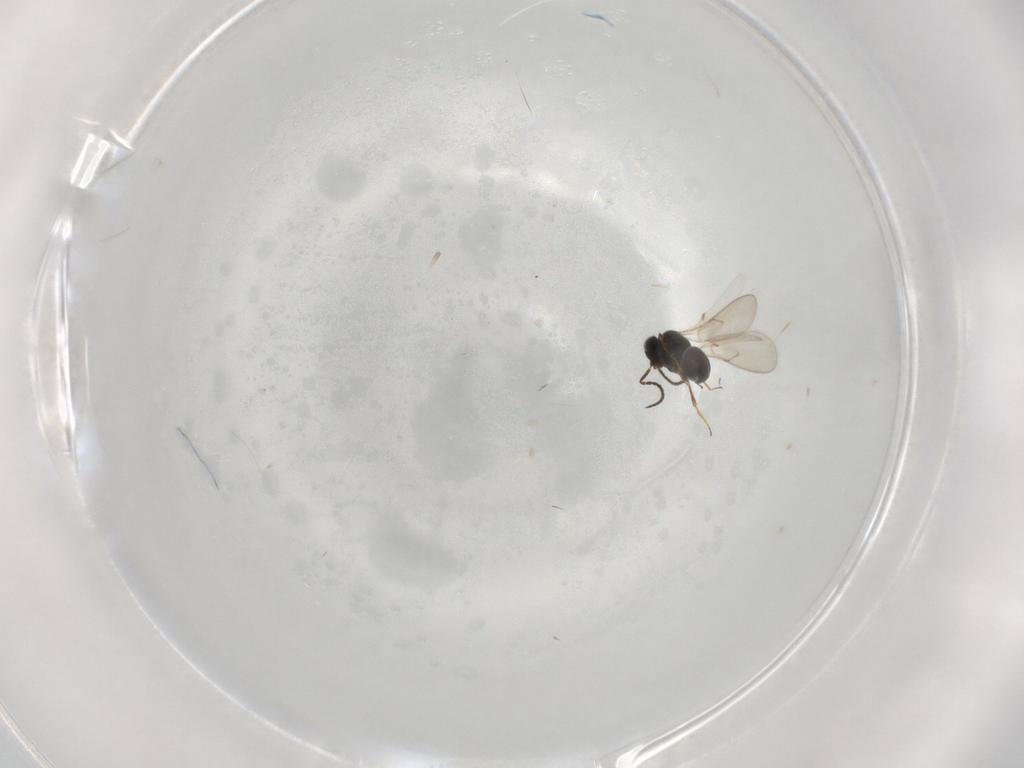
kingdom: Animalia
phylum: Arthropoda
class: Insecta
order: Hymenoptera
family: Scelionidae
